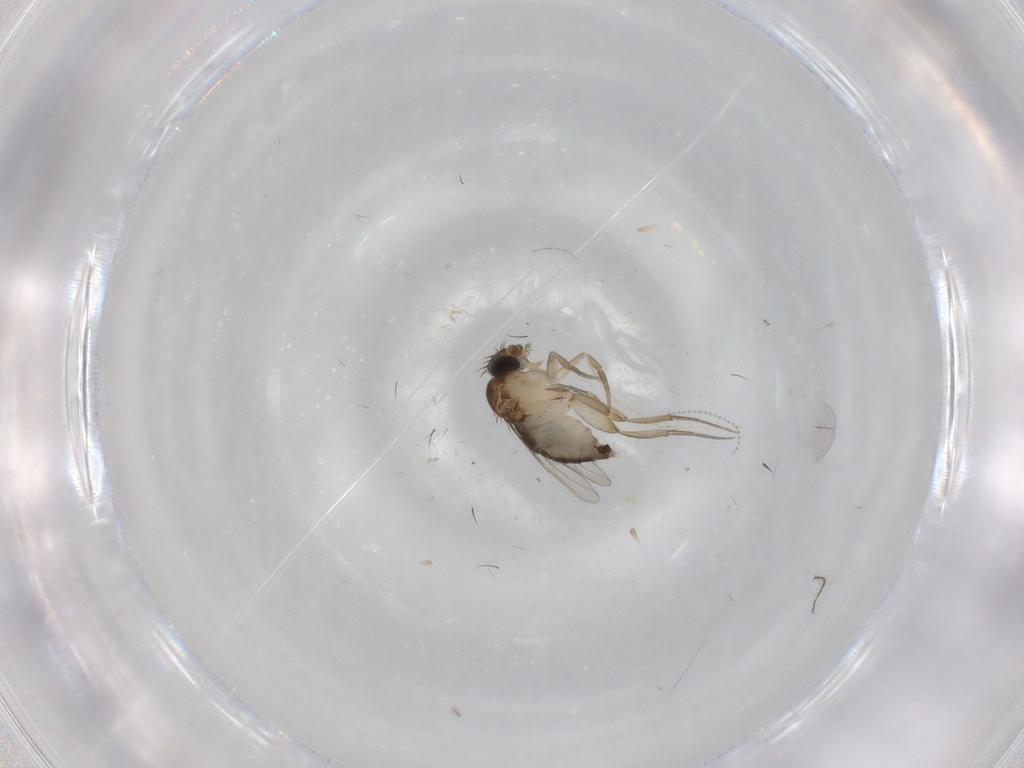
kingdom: Animalia
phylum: Arthropoda
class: Insecta
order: Diptera
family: Phoridae
